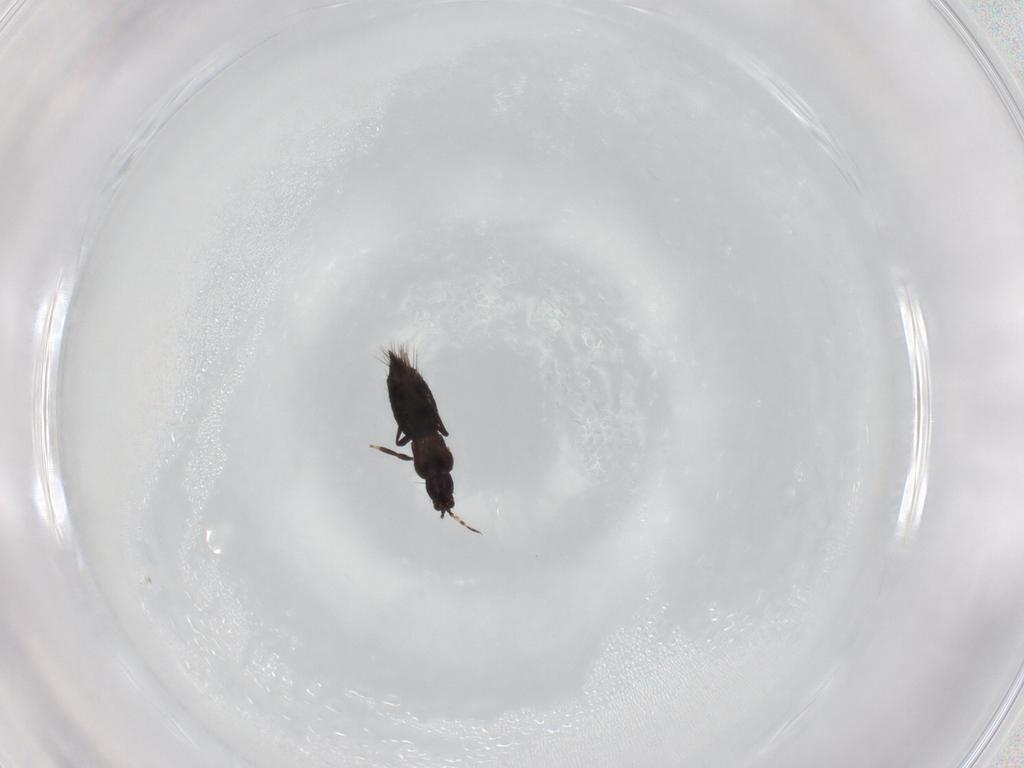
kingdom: Animalia
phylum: Arthropoda
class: Insecta
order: Thysanoptera
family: Thripidae
